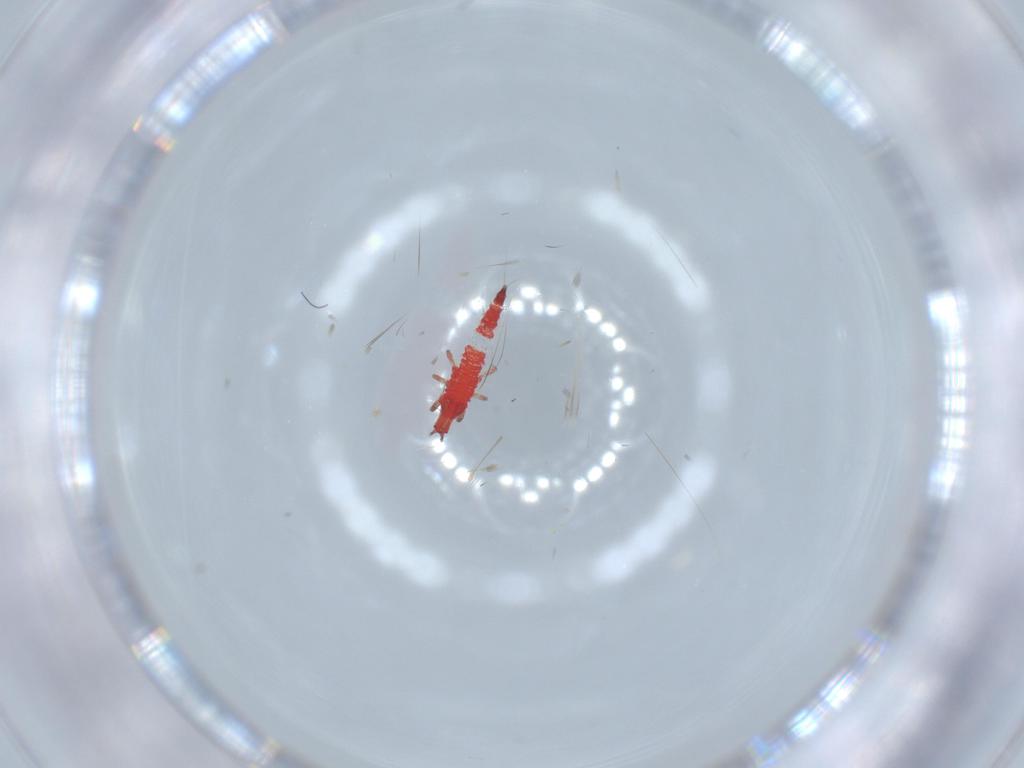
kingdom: Animalia
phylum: Arthropoda
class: Insecta
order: Thysanoptera
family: Phlaeothripidae
